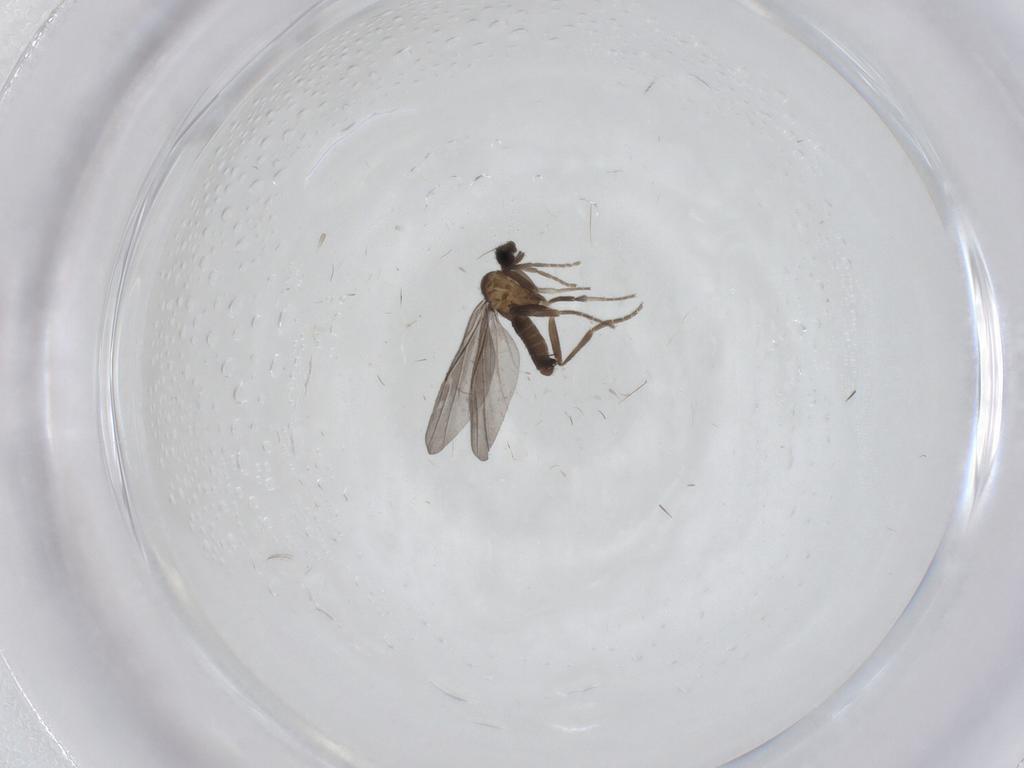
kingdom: Animalia
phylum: Arthropoda
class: Insecta
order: Diptera
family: Phoridae
